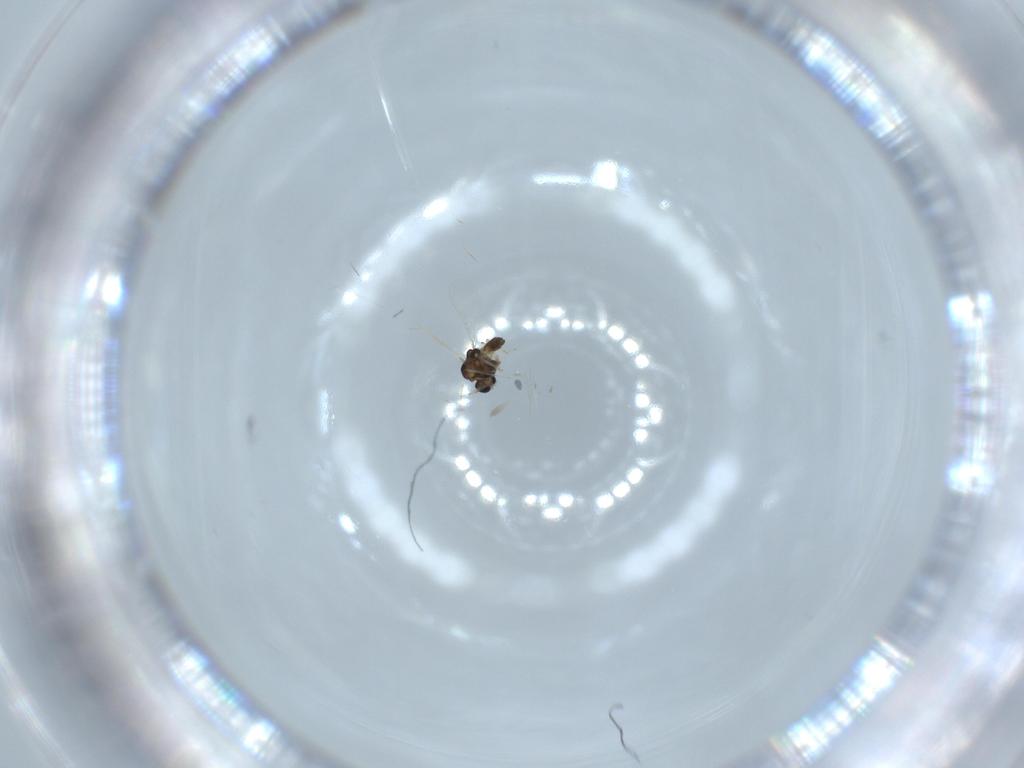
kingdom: Animalia
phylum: Arthropoda
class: Insecta
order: Diptera
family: Chironomidae
